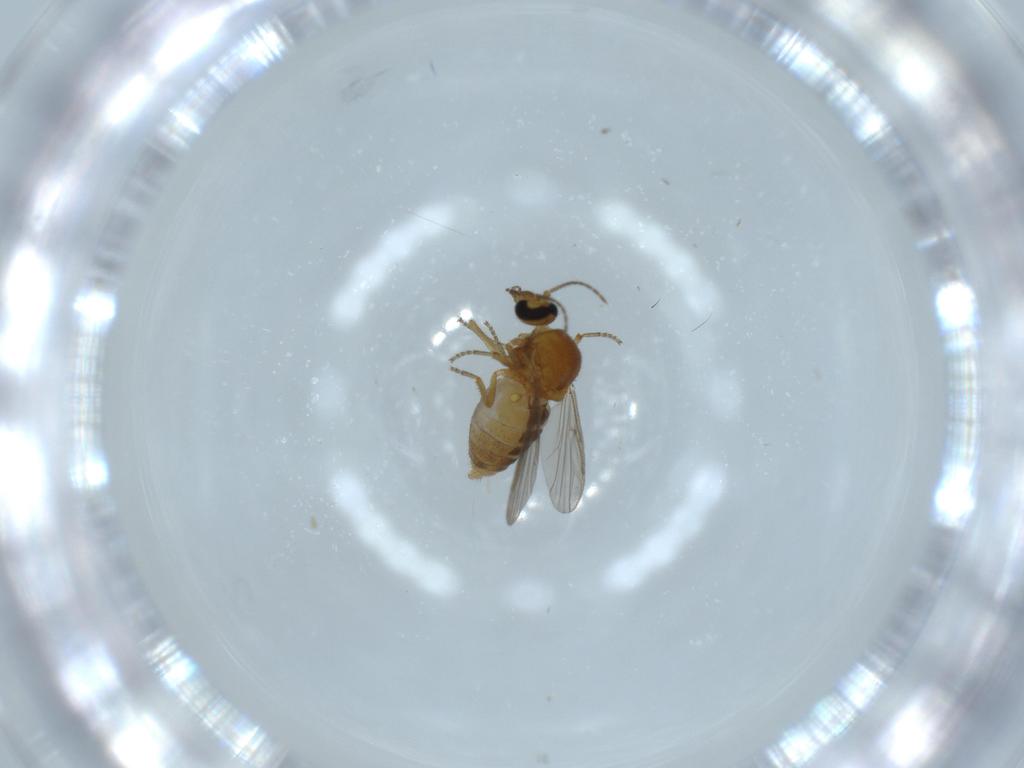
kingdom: Animalia
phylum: Arthropoda
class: Insecta
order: Diptera
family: Ceratopogonidae
